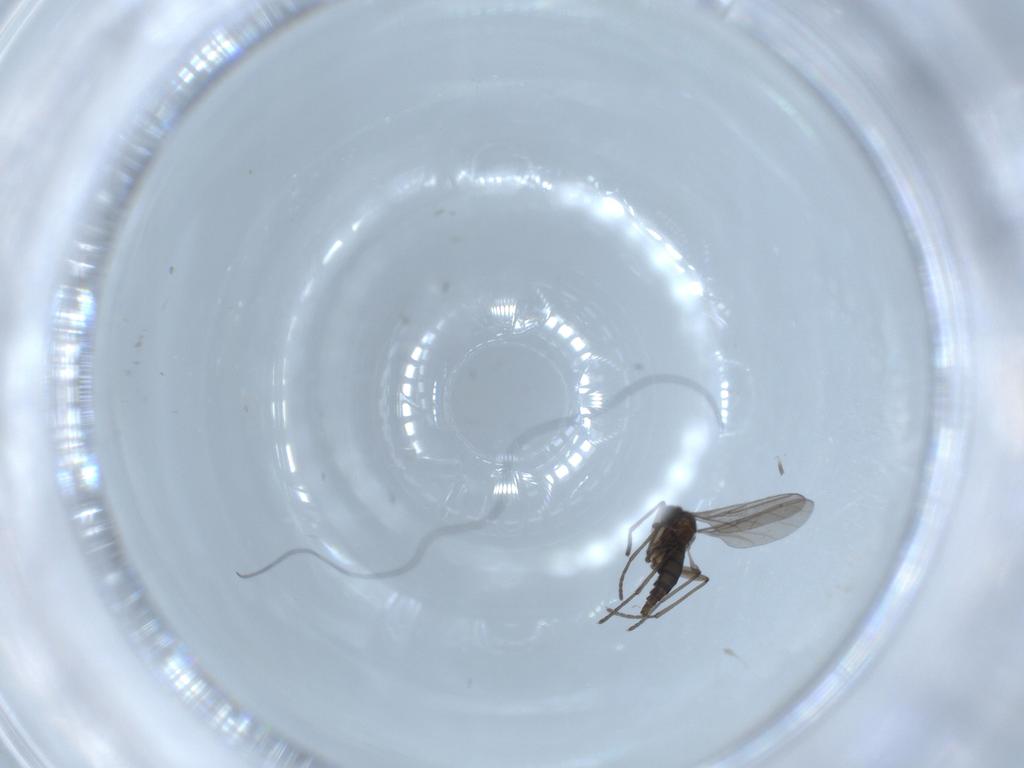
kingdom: Animalia
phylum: Arthropoda
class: Insecta
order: Diptera
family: Sciaridae
